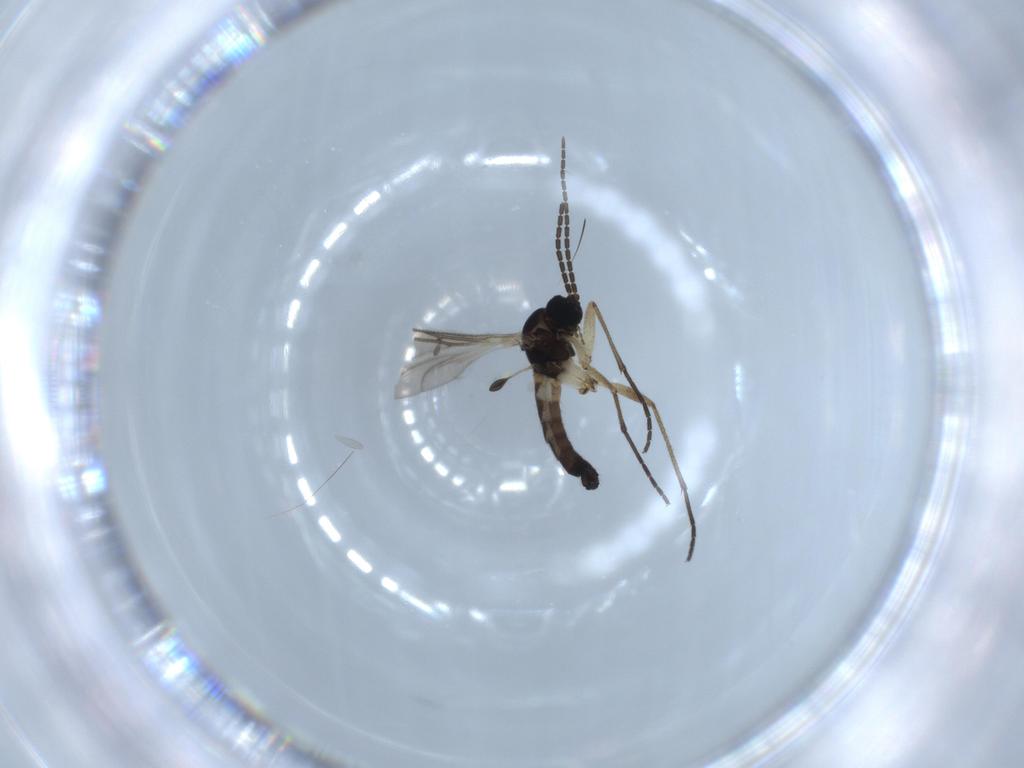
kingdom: Animalia
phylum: Arthropoda
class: Insecta
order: Diptera
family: Sciaridae
